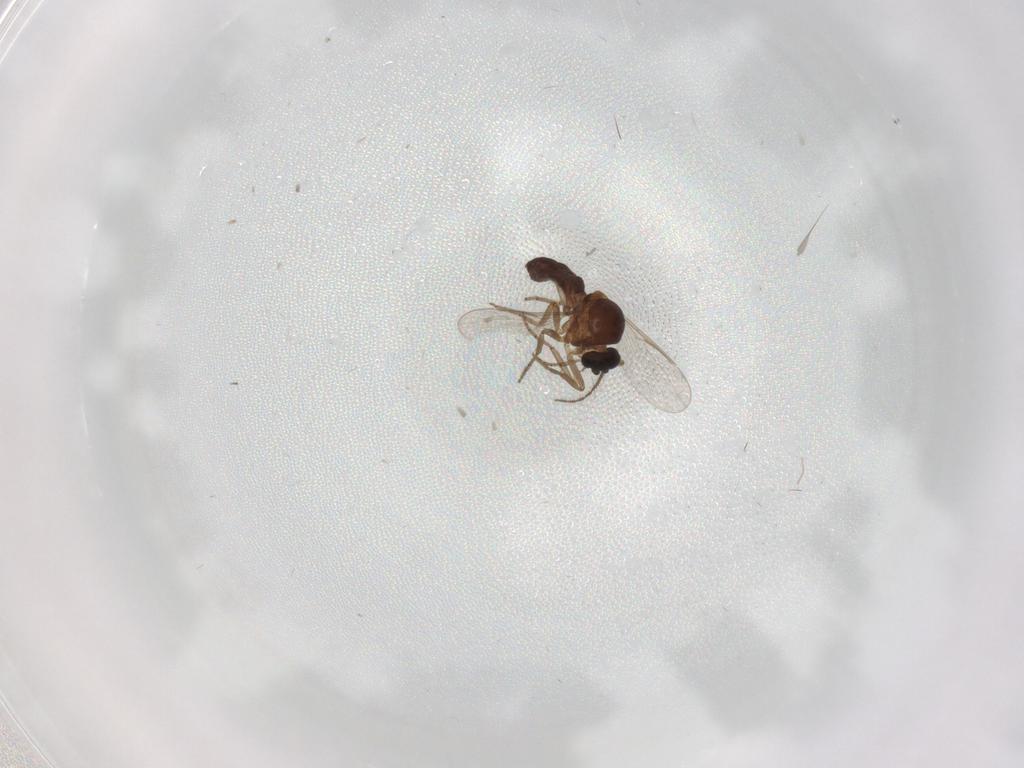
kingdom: Animalia
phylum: Arthropoda
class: Insecta
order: Diptera
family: Ceratopogonidae
